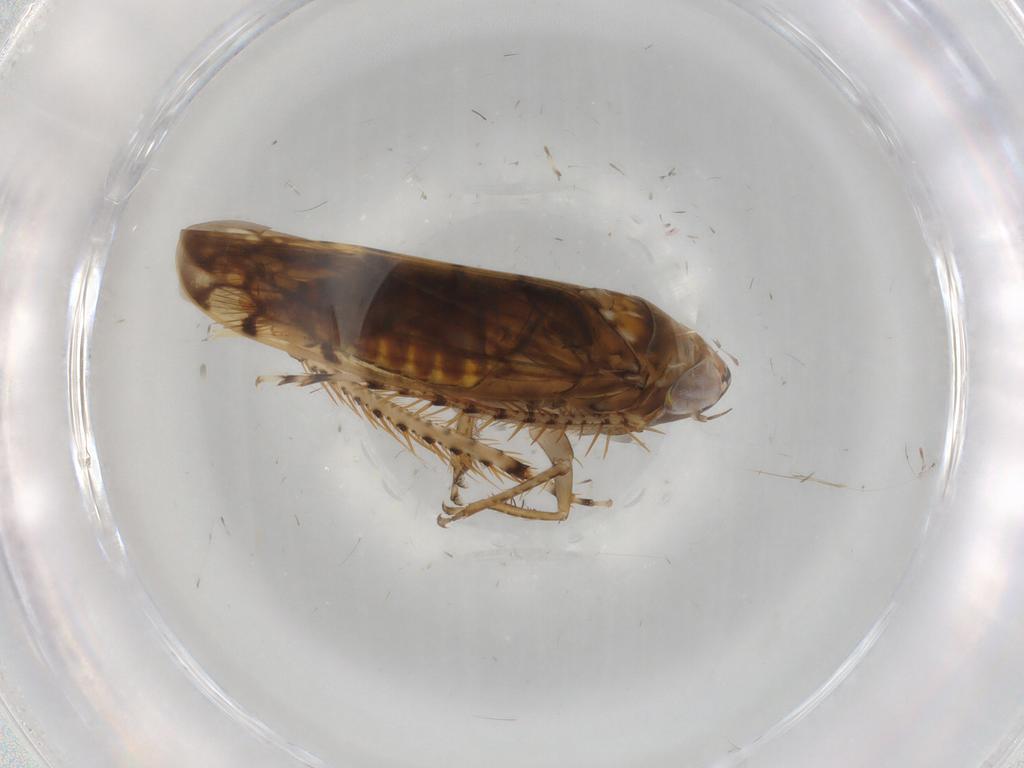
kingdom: Animalia
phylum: Arthropoda
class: Insecta
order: Hemiptera
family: Cicadellidae
